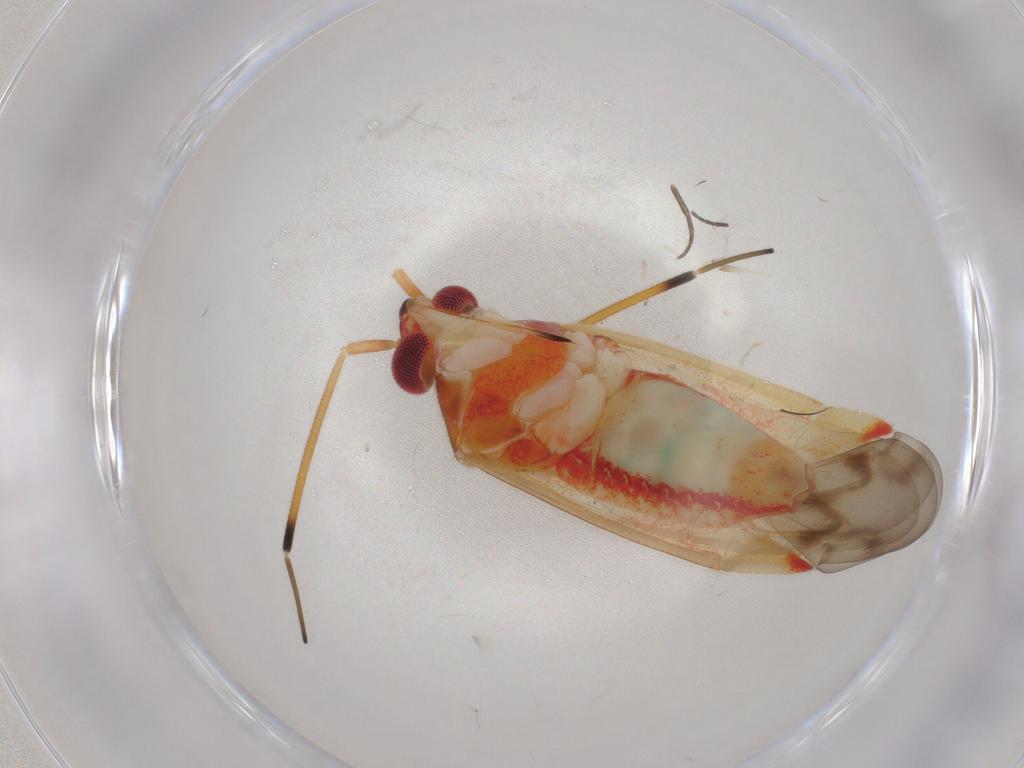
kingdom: Animalia
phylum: Arthropoda
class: Insecta
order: Hemiptera
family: Miridae
